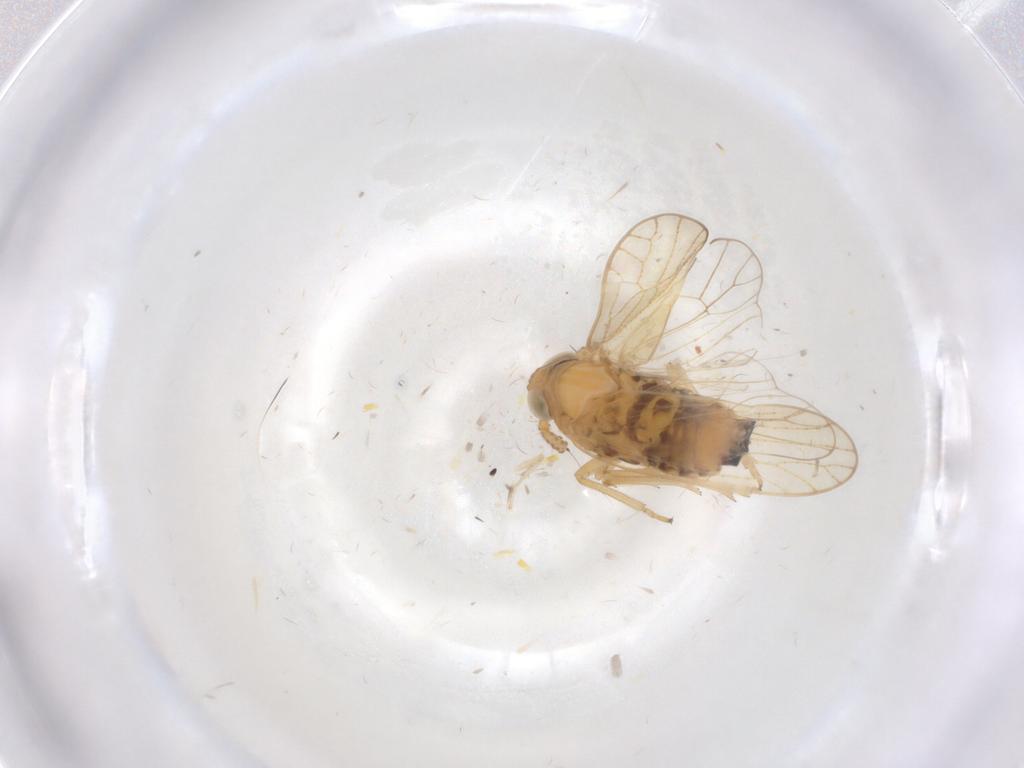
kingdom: Animalia
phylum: Arthropoda
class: Insecta
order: Hemiptera
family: Delphacidae
